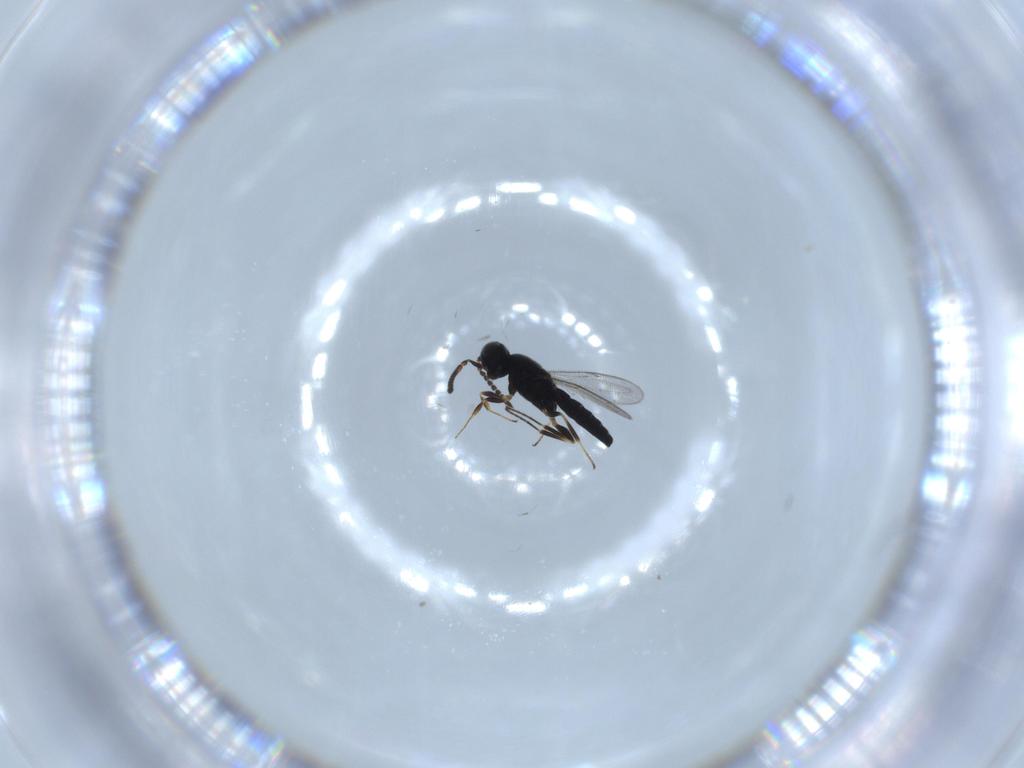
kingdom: Animalia
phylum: Arthropoda
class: Insecta
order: Hymenoptera
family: Scelionidae
